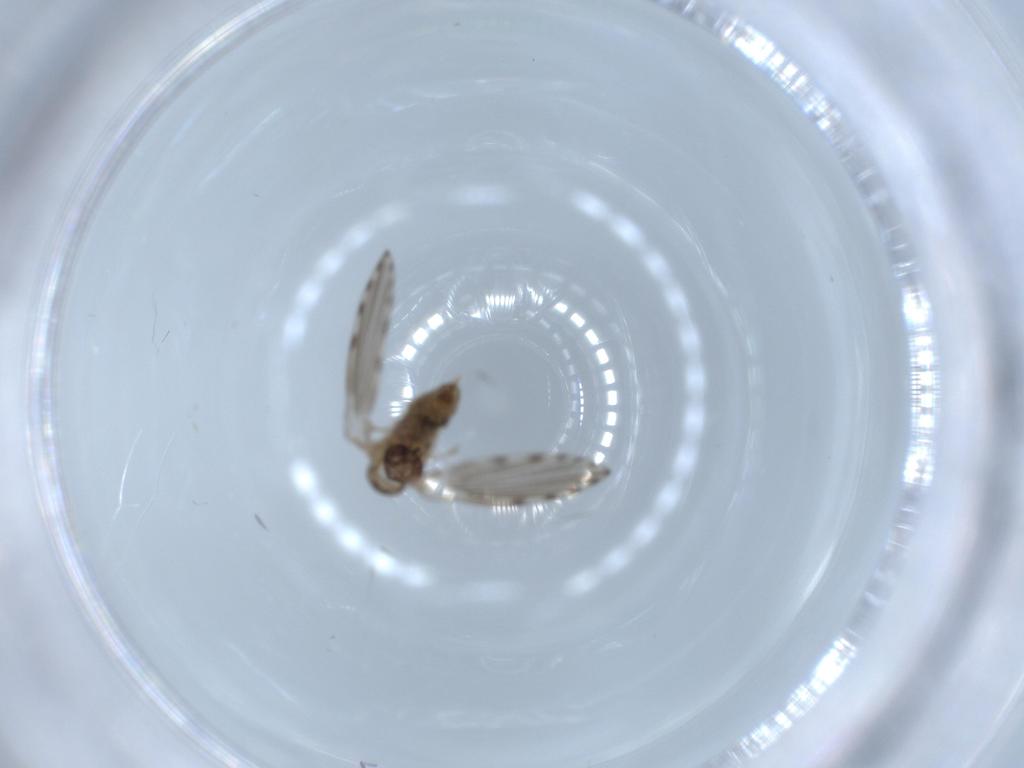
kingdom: Animalia
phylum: Arthropoda
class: Insecta
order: Diptera
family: Psychodidae
